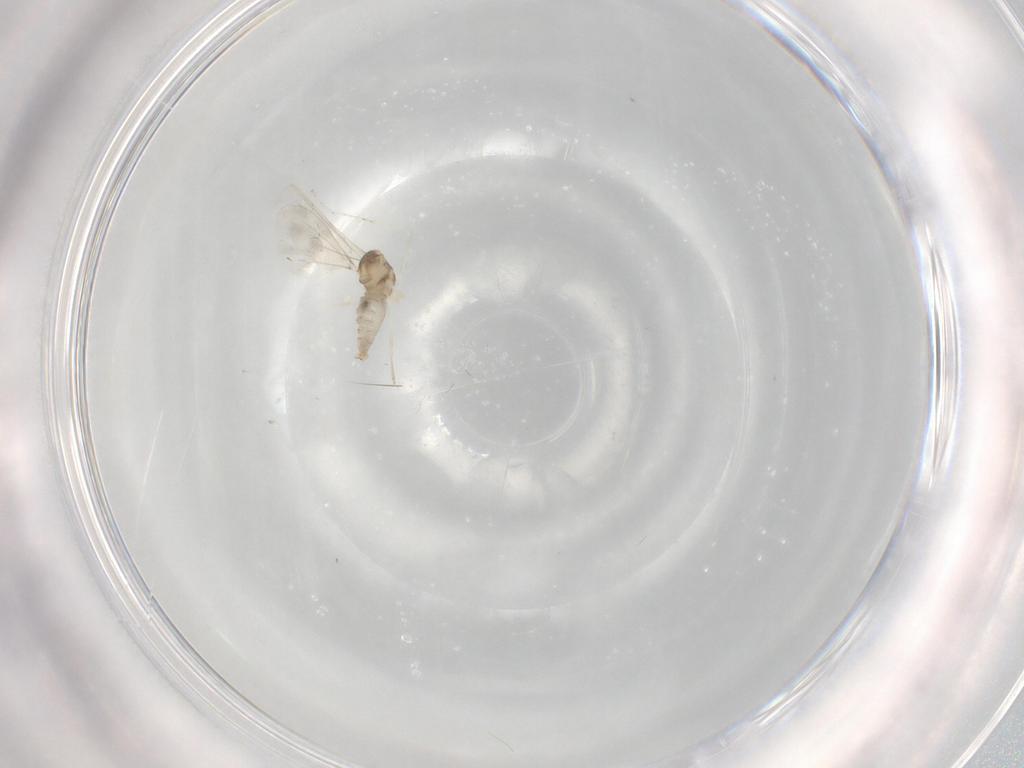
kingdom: Animalia
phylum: Arthropoda
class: Insecta
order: Diptera
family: Cecidomyiidae
